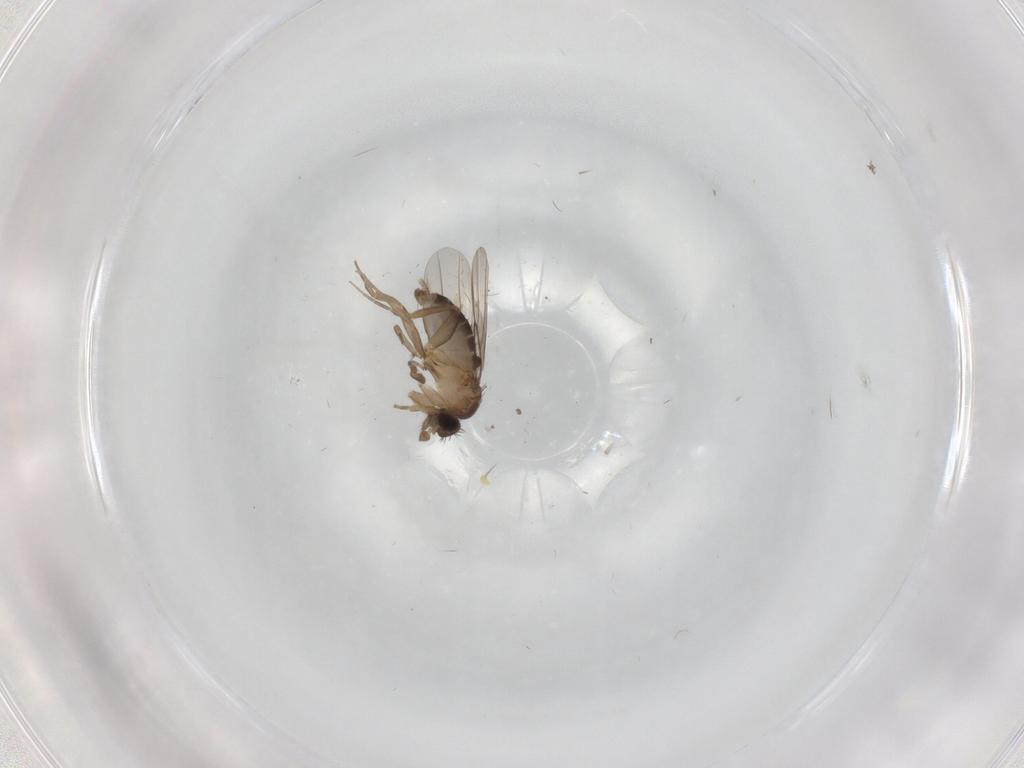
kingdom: Animalia
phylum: Arthropoda
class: Insecta
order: Diptera
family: Phoridae
